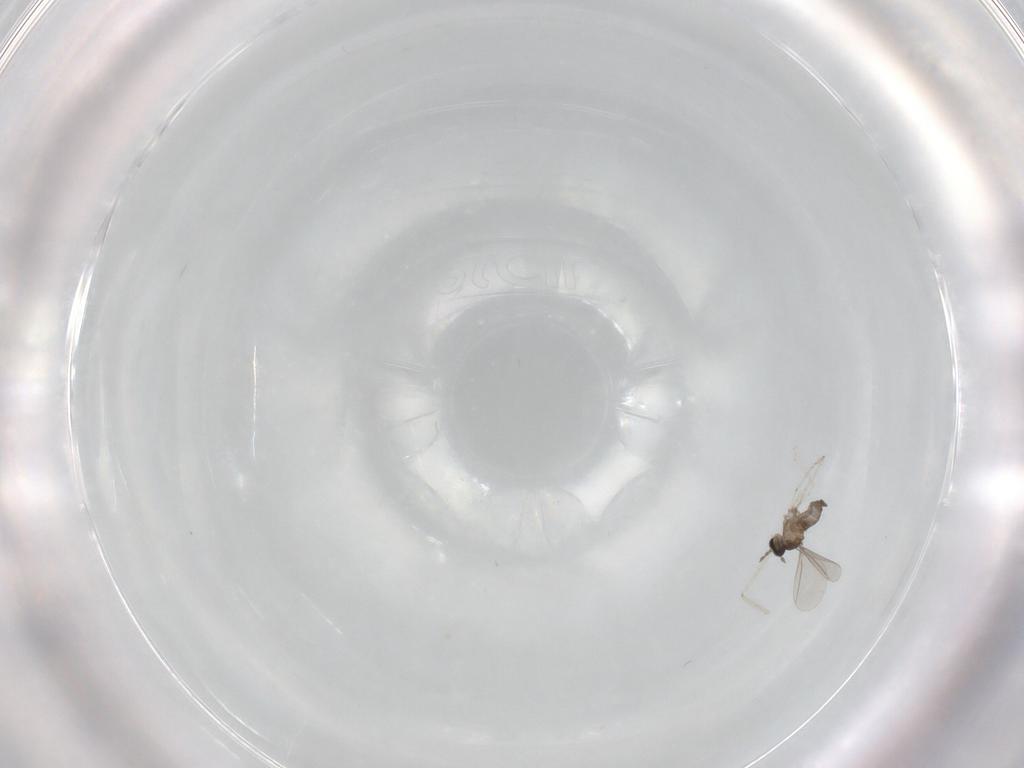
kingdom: Animalia
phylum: Arthropoda
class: Insecta
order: Diptera
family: Cecidomyiidae
